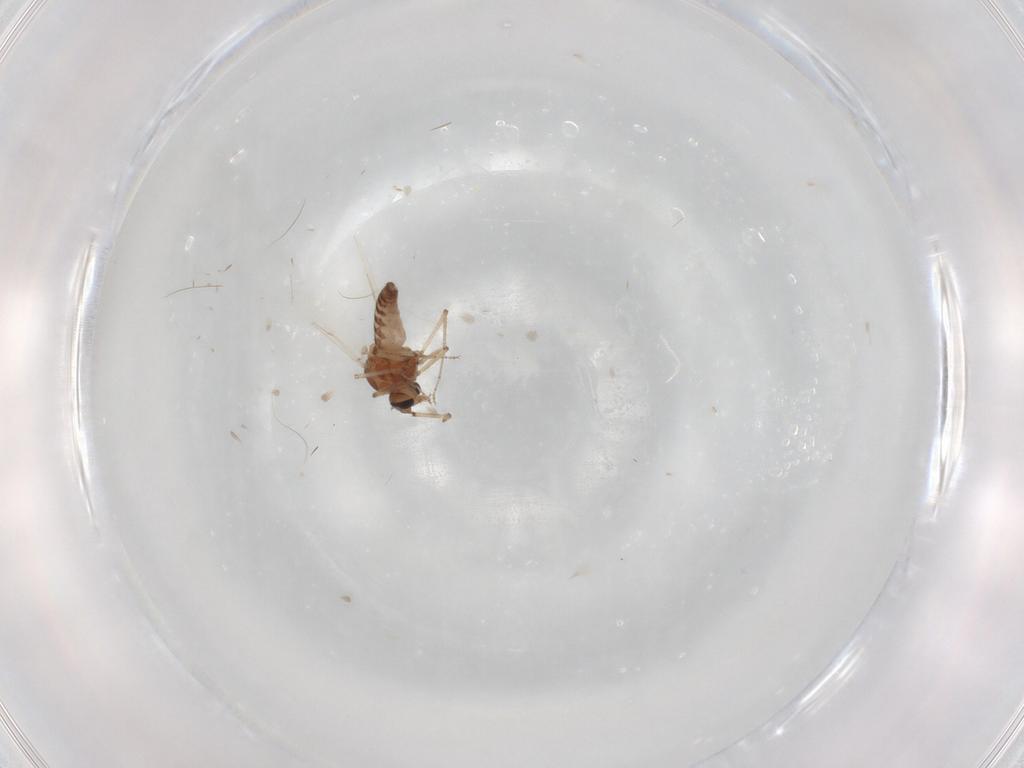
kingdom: Animalia
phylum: Arthropoda
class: Insecta
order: Diptera
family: Ceratopogonidae
